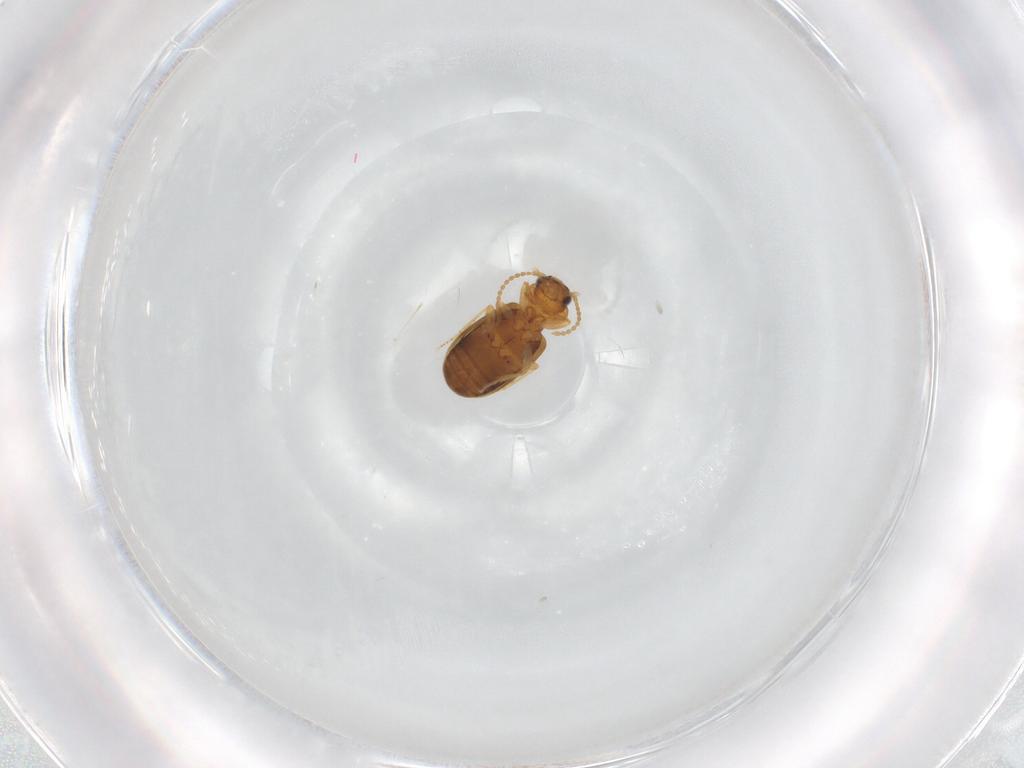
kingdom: Animalia
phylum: Arthropoda
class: Insecta
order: Coleoptera
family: Carabidae
